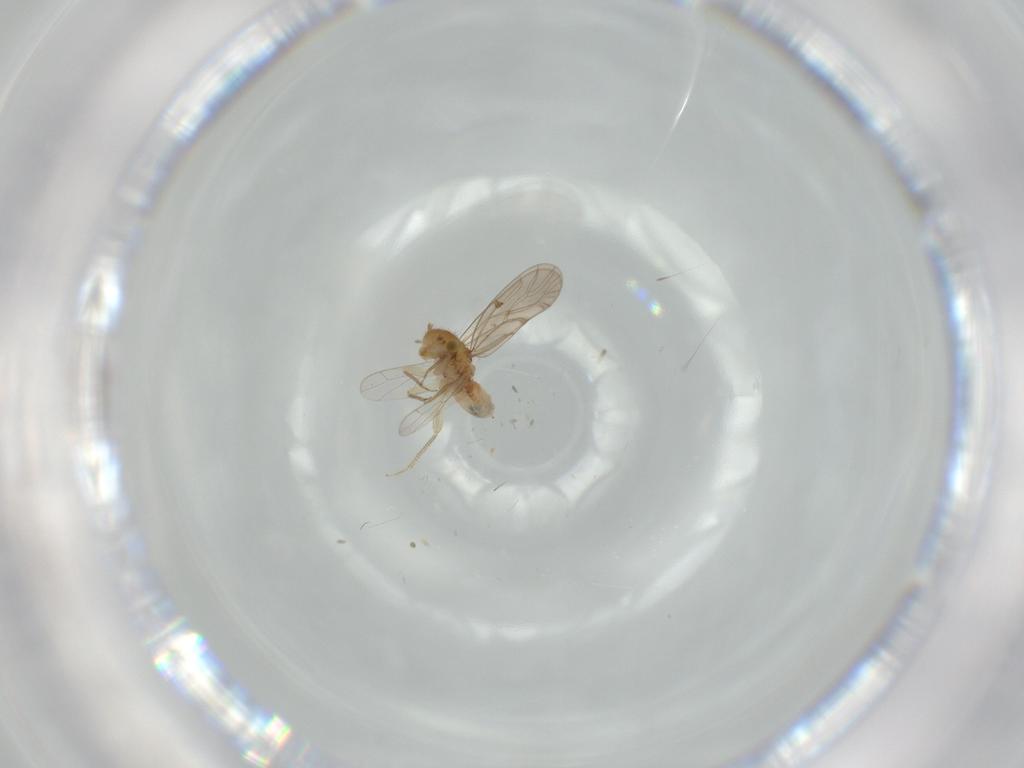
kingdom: Animalia
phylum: Arthropoda
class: Insecta
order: Psocodea
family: Ectopsocidae
